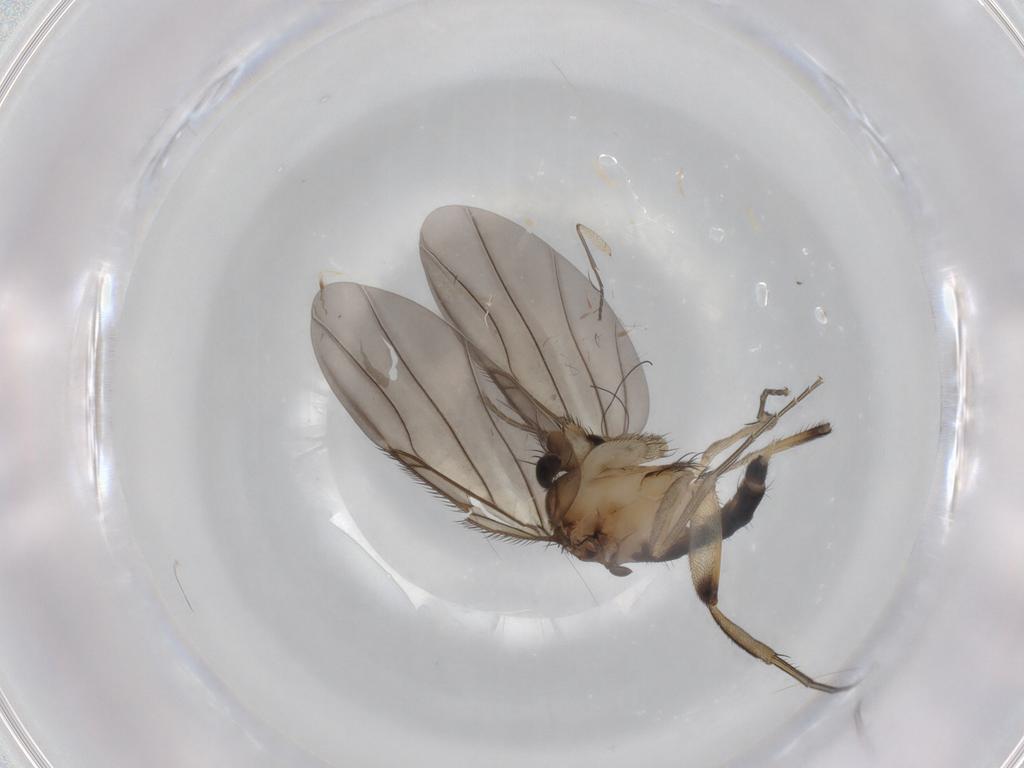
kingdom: Animalia
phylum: Arthropoda
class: Insecta
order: Diptera
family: Phoridae
